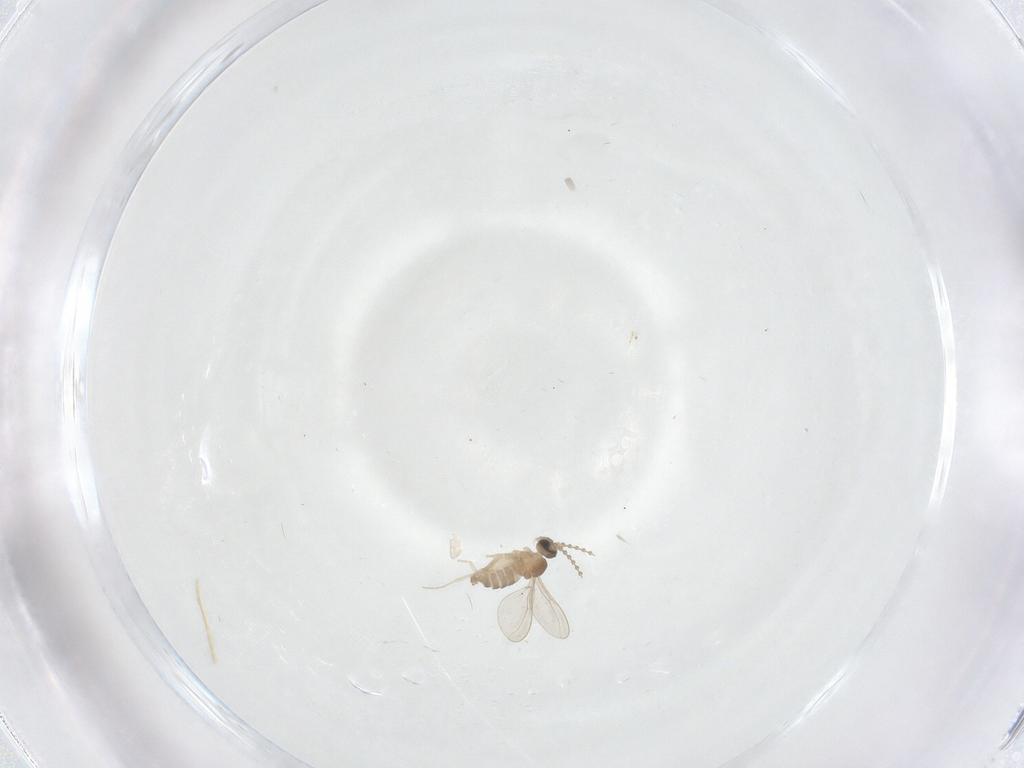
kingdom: Animalia
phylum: Arthropoda
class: Insecta
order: Diptera
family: Cecidomyiidae
